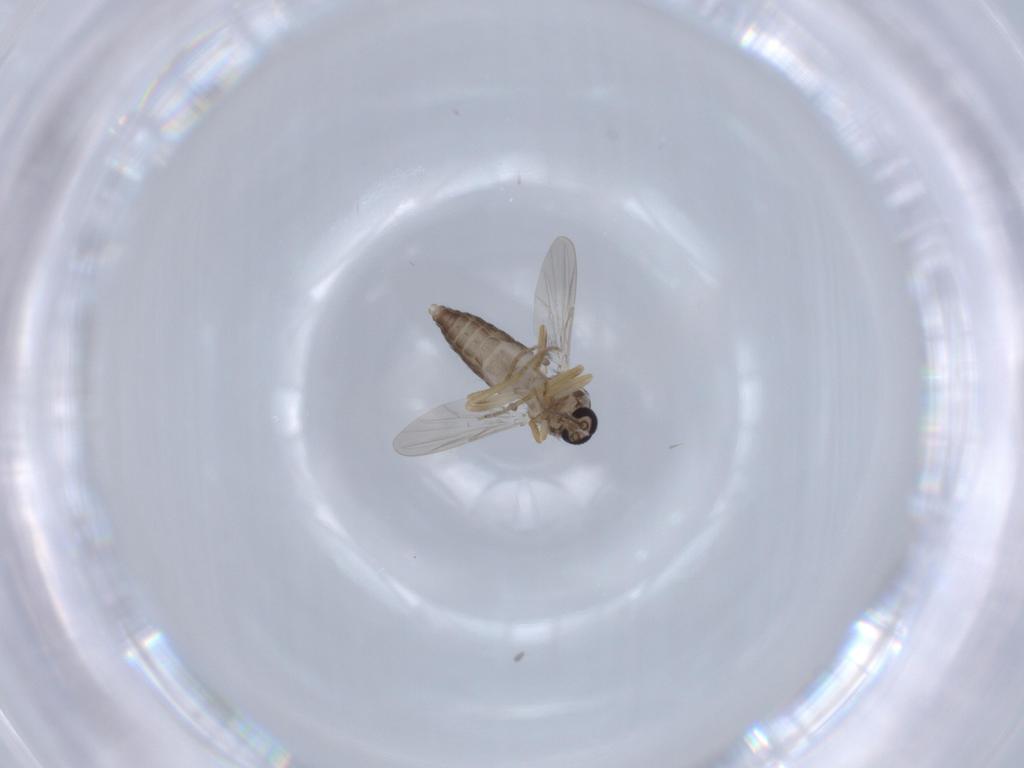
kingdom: Animalia
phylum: Arthropoda
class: Insecta
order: Diptera
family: Ceratopogonidae
